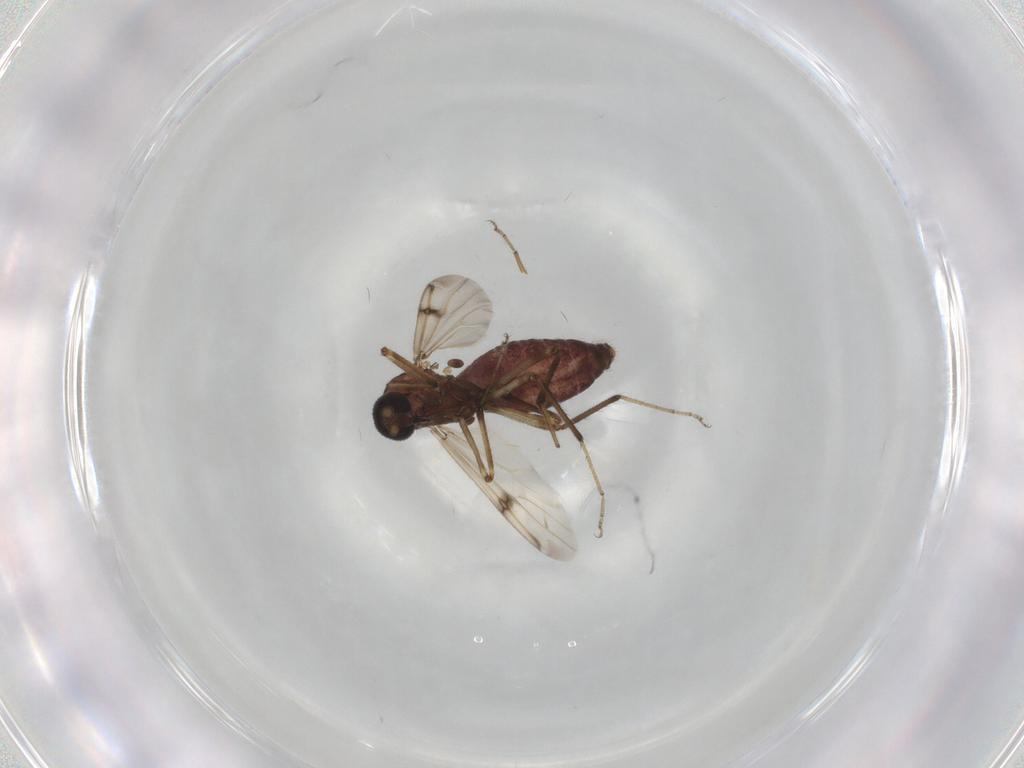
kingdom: Animalia
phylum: Arthropoda
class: Insecta
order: Diptera
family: Ceratopogonidae
